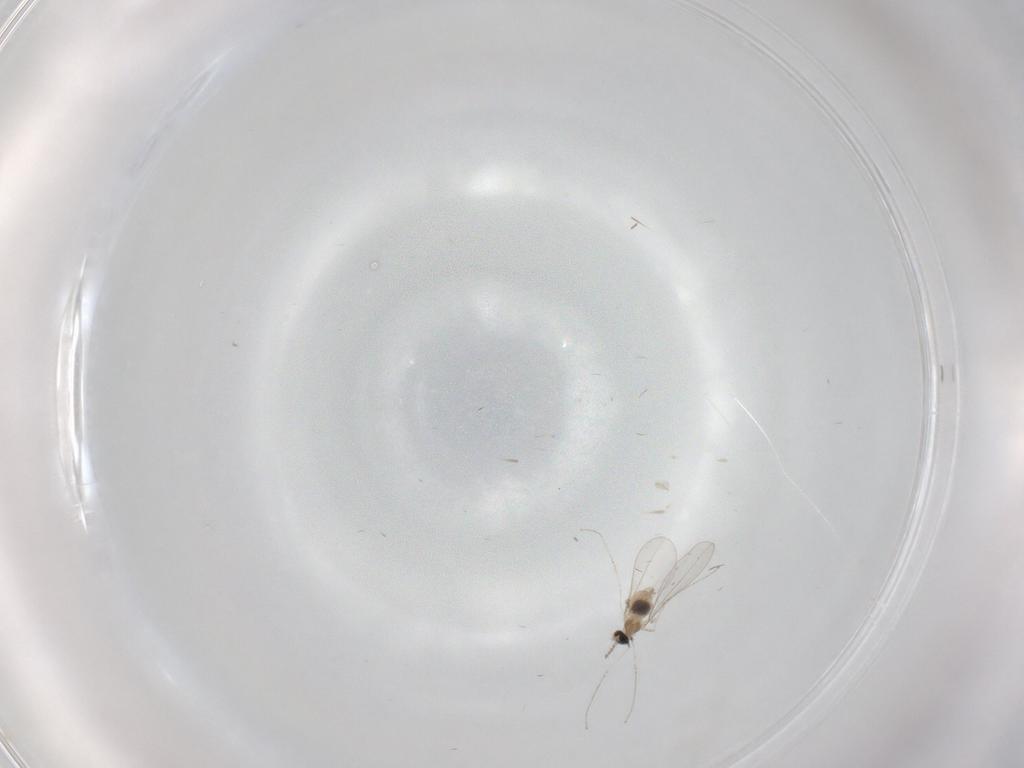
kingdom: Animalia
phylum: Arthropoda
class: Insecta
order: Diptera
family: Cecidomyiidae
